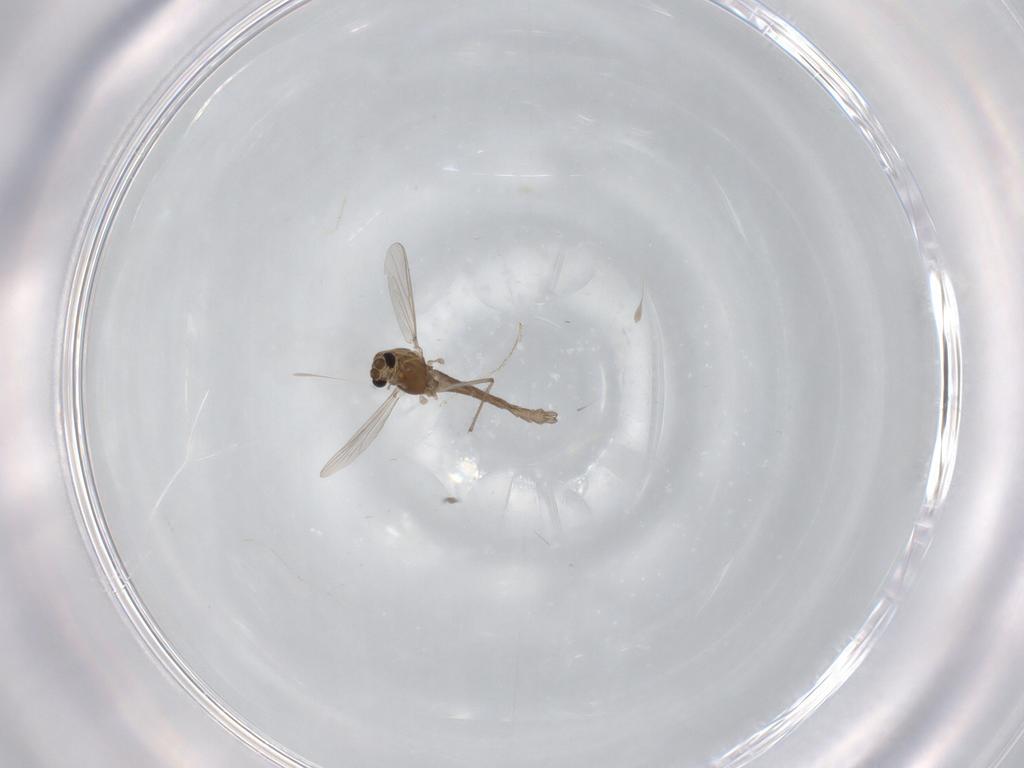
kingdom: Animalia
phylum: Arthropoda
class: Insecta
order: Diptera
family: Chironomidae
